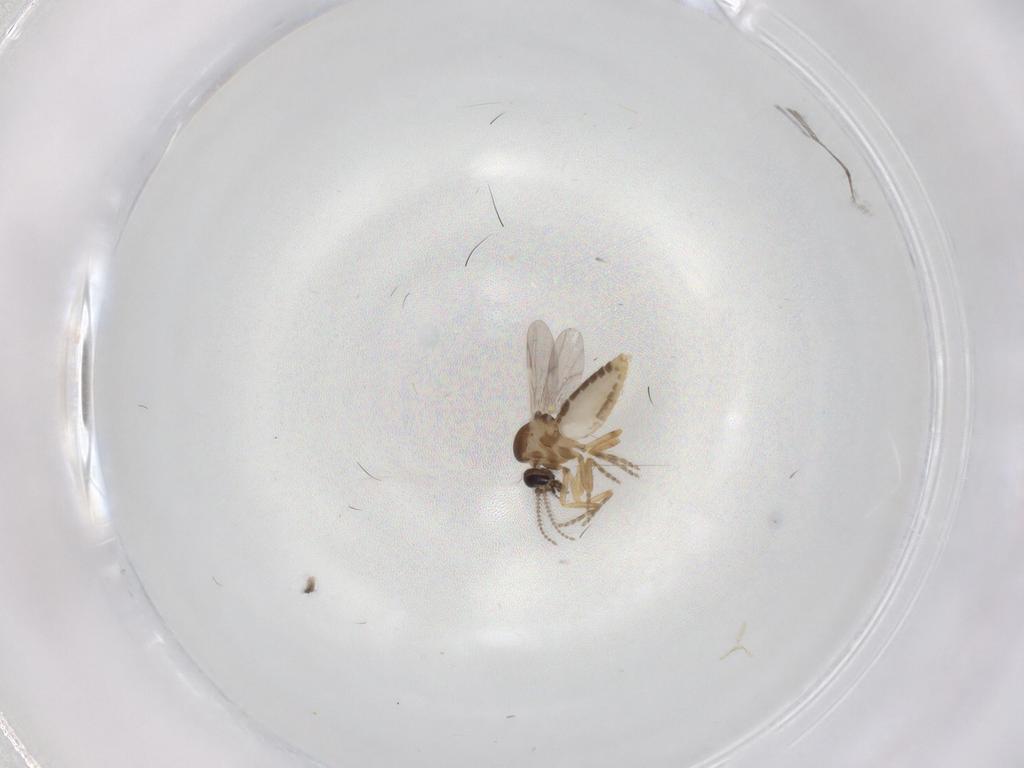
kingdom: Animalia
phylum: Arthropoda
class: Insecta
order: Diptera
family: Ceratopogonidae
